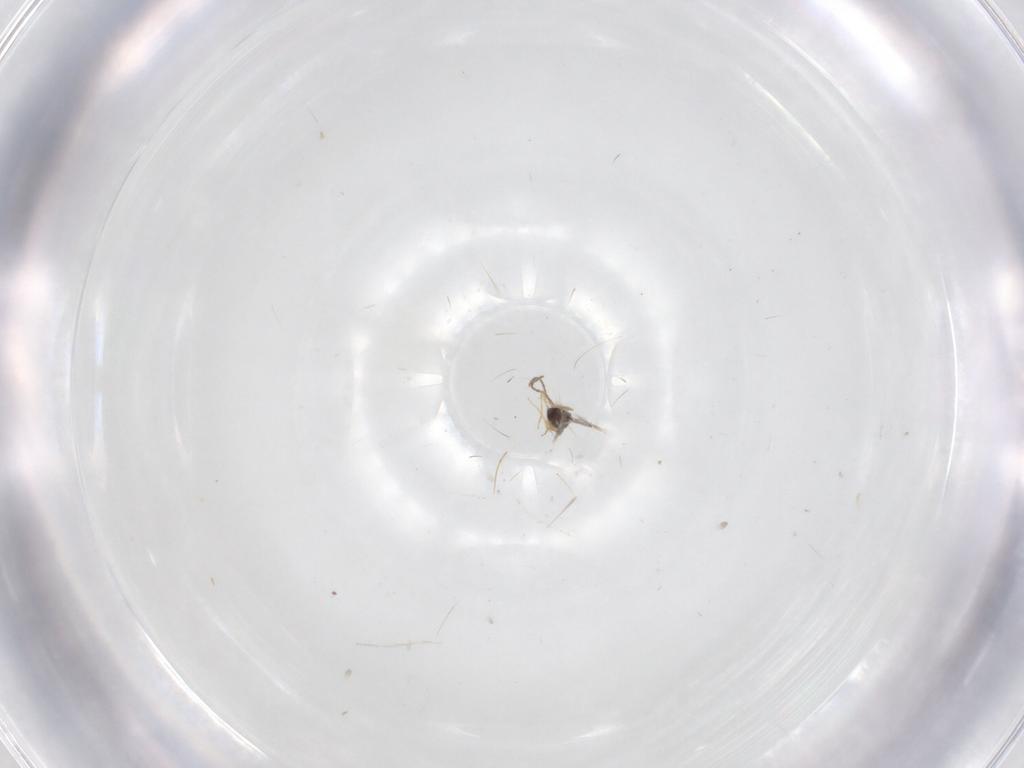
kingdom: Animalia
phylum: Arthropoda
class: Insecta
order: Hymenoptera
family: Mymaridae
